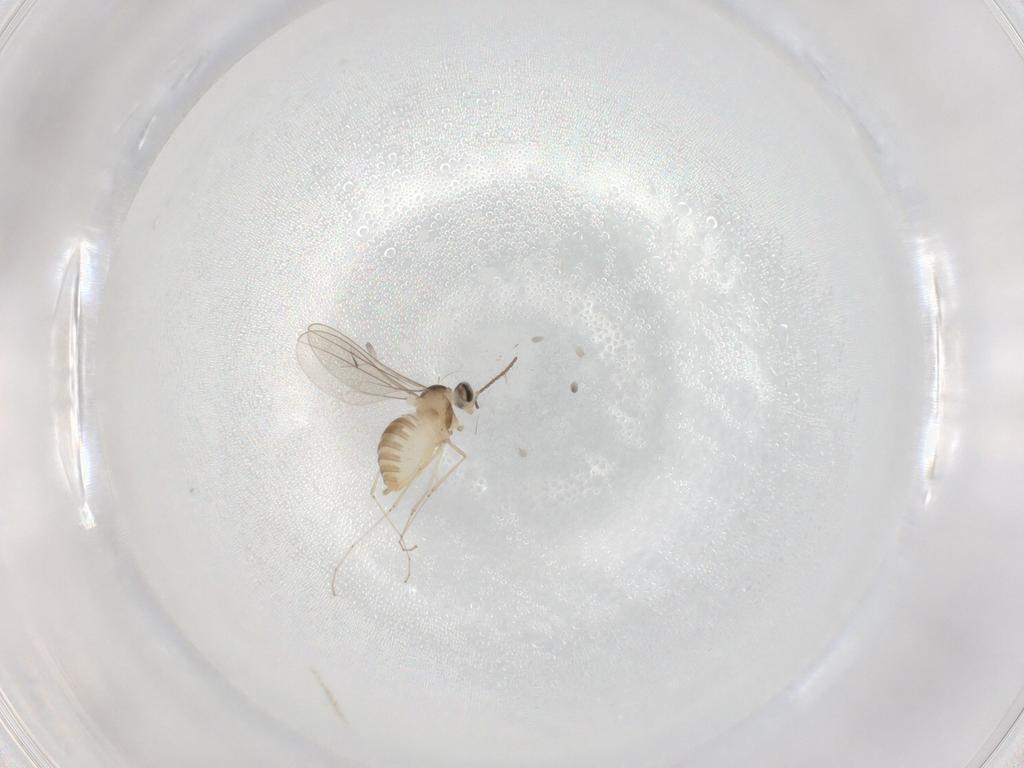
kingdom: Animalia
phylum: Arthropoda
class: Insecta
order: Diptera
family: Cecidomyiidae
